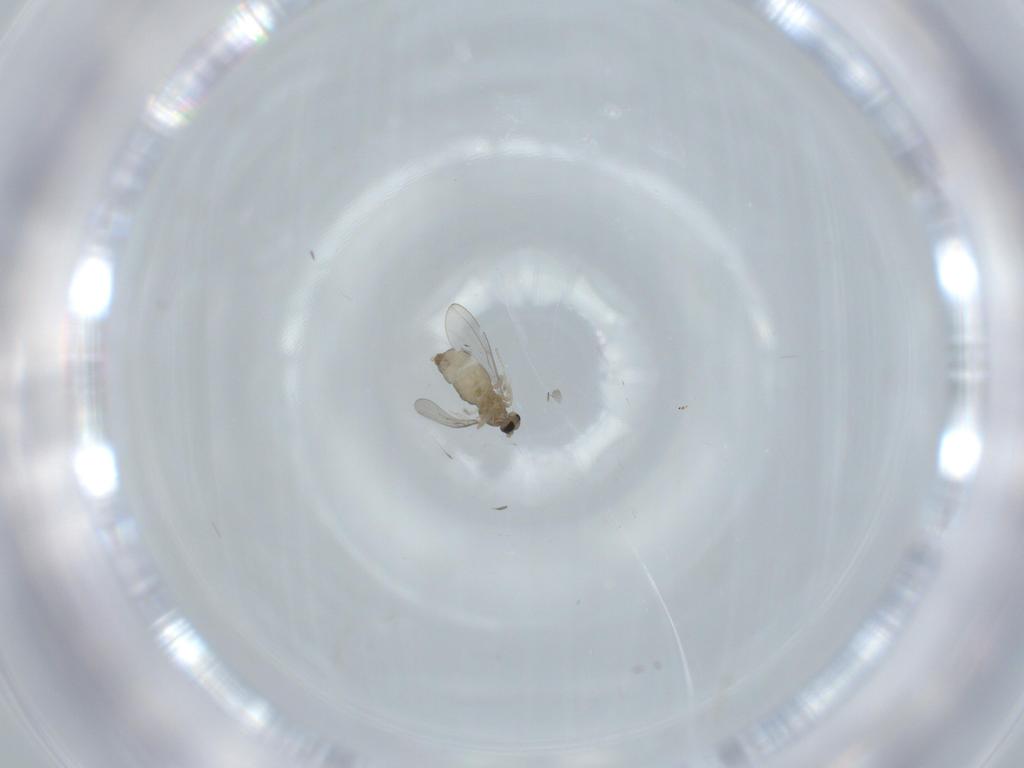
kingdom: Animalia
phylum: Arthropoda
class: Insecta
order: Diptera
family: Cecidomyiidae
